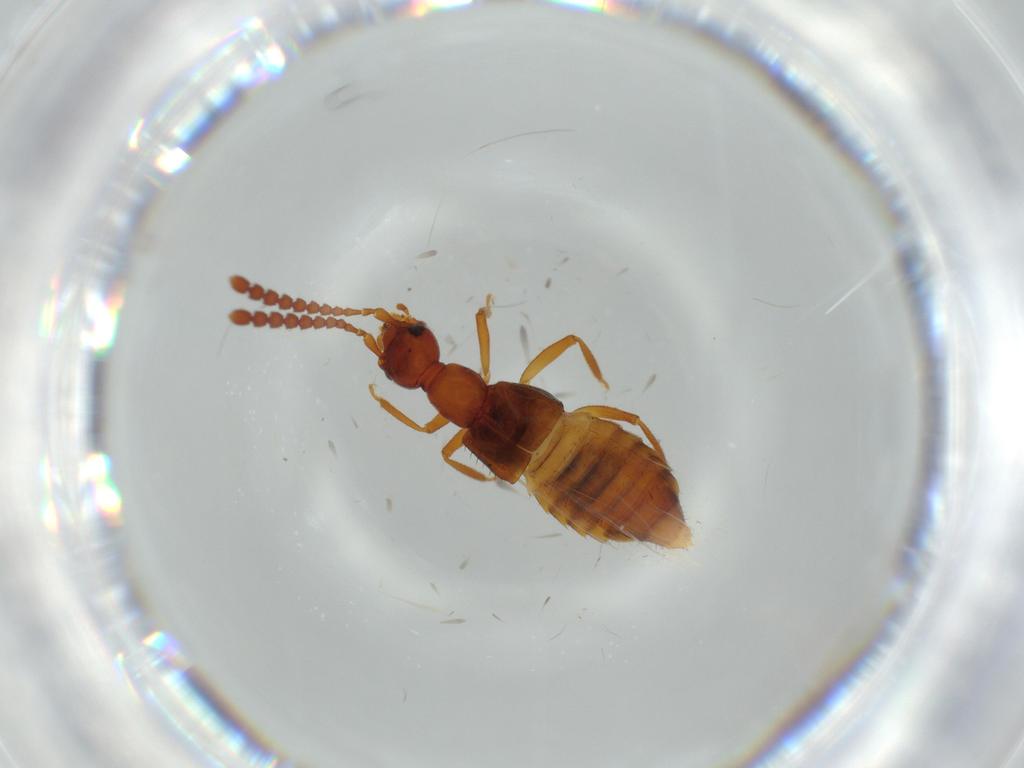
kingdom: Animalia
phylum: Arthropoda
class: Insecta
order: Coleoptera
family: Staphylinidae
